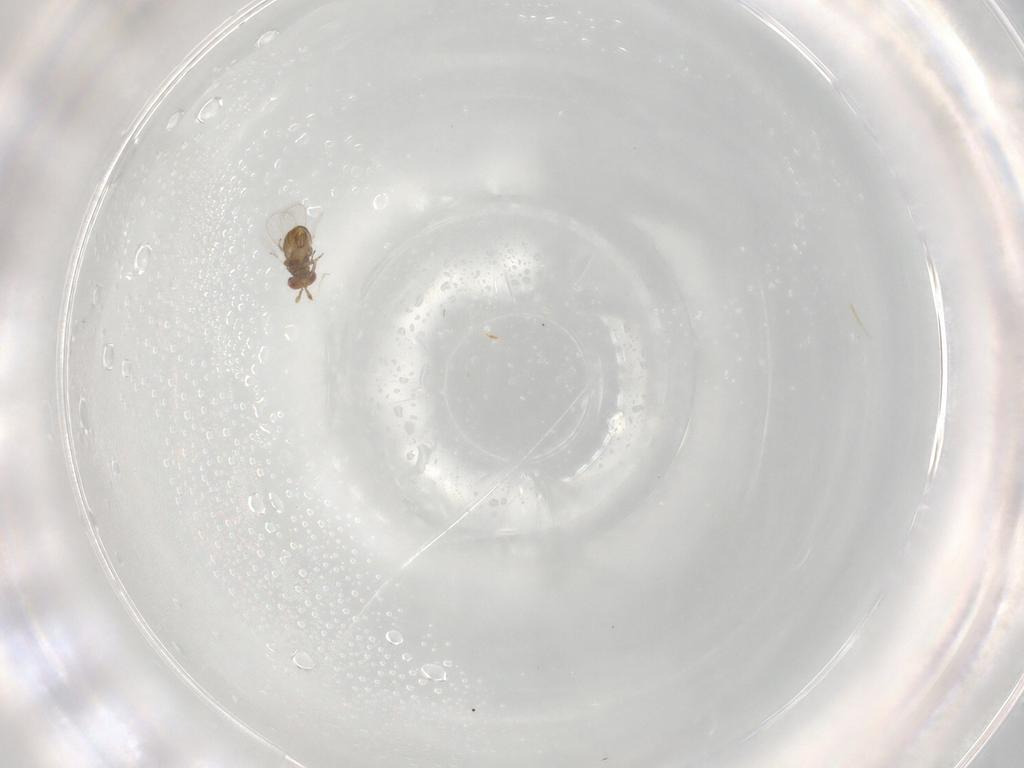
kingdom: Animalia
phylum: Arthropoda
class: Insecta
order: Hymenoptera
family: Trichogrammatidae
